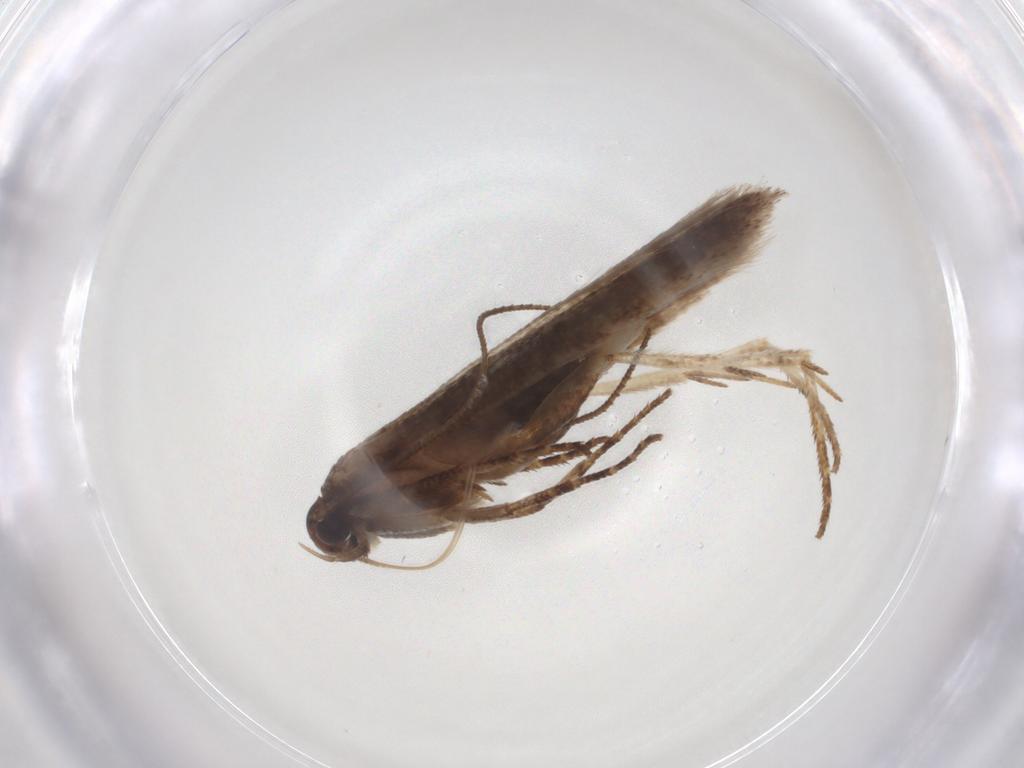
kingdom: Animalia
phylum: Arthropoda
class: Insecta
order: Lepidoptera
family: Gelechiidae
